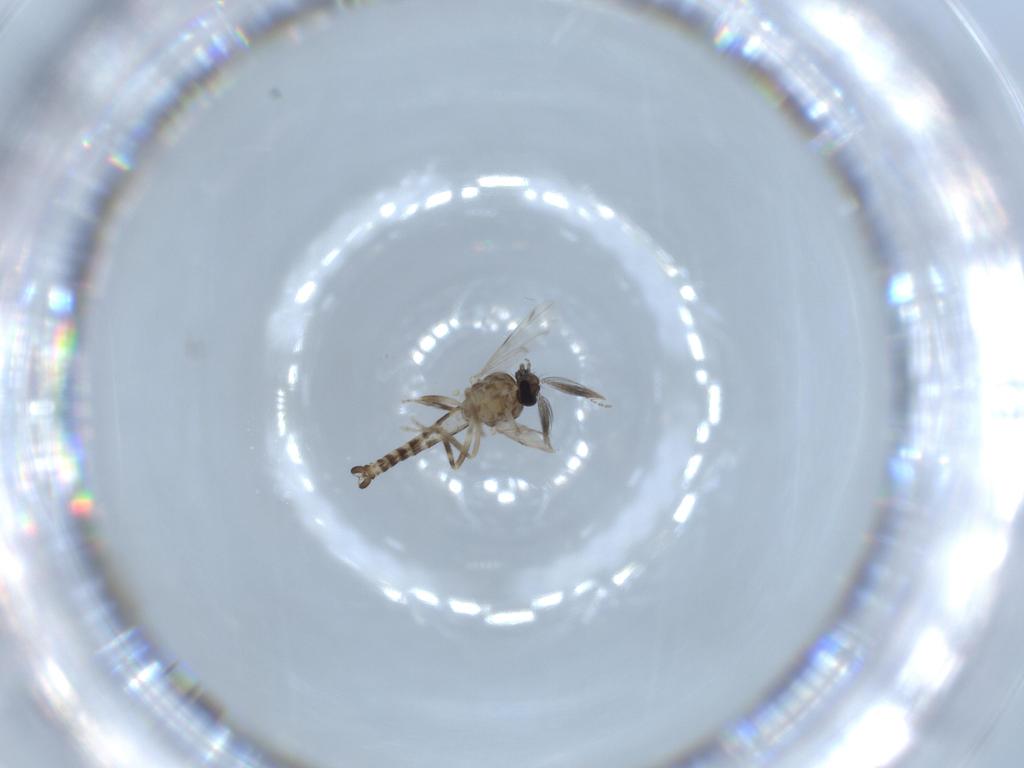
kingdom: Animalia
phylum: Arthropoda
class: Insecta
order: Diptera
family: Ceratopogonidae
